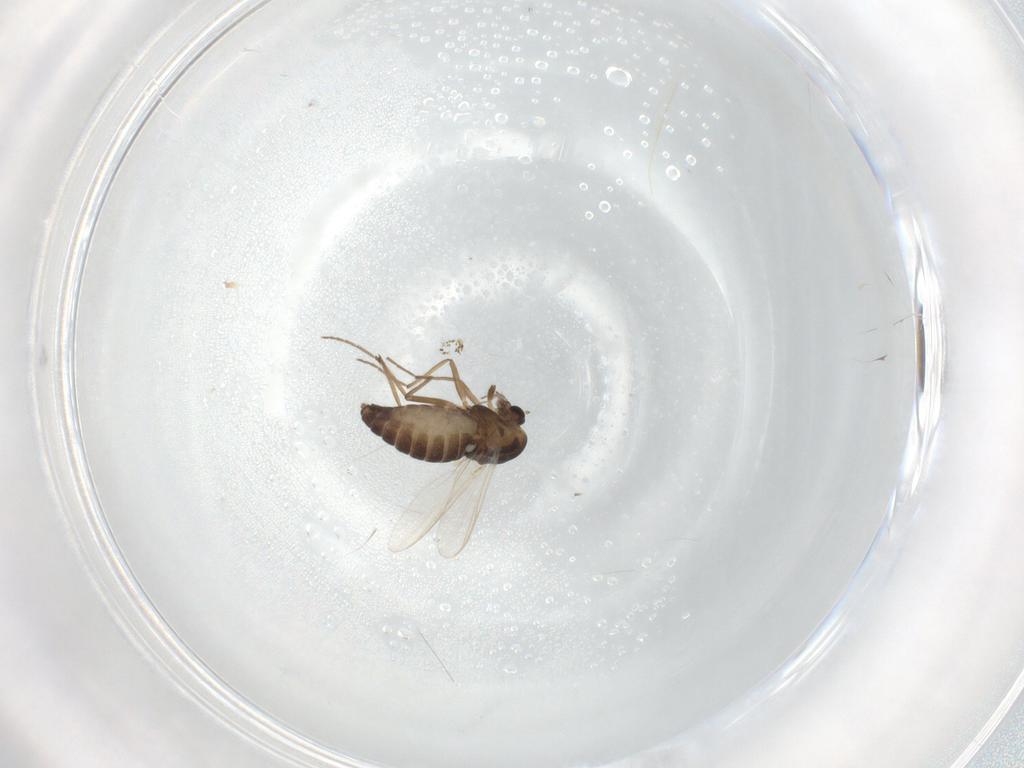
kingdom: Animalia
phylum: Arthropoda
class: Insecta
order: Diptera
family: Chironomidae
